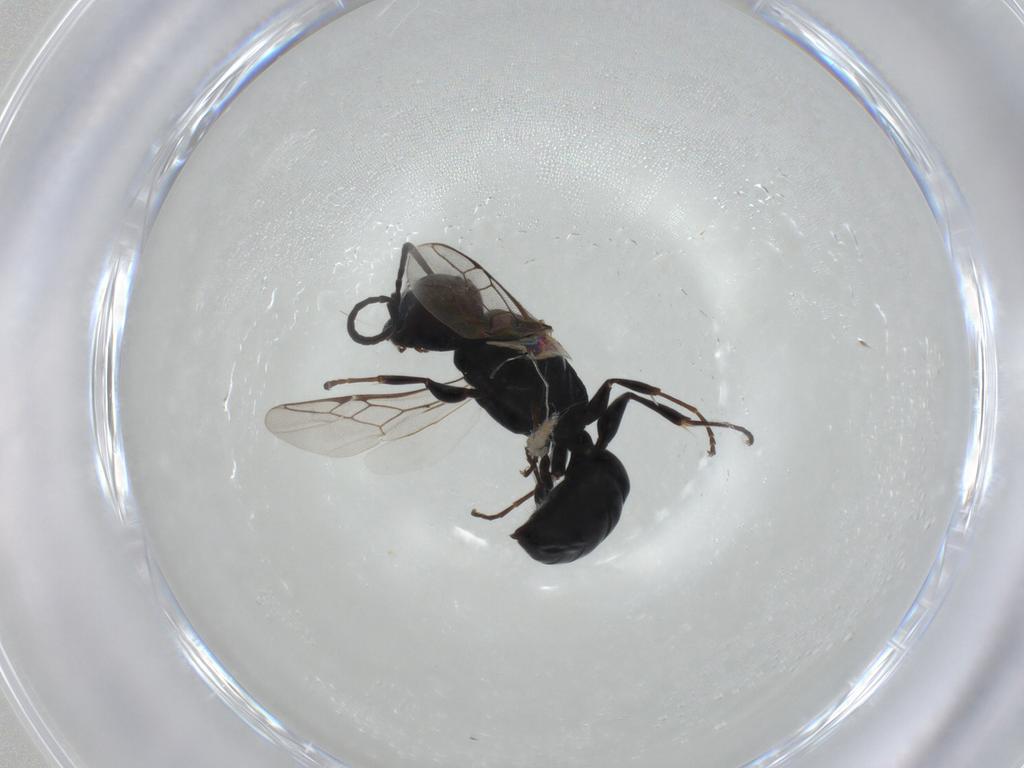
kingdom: Animalia
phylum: Arthropoda
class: Insecta
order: Hymenoptera
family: Crabronidae
